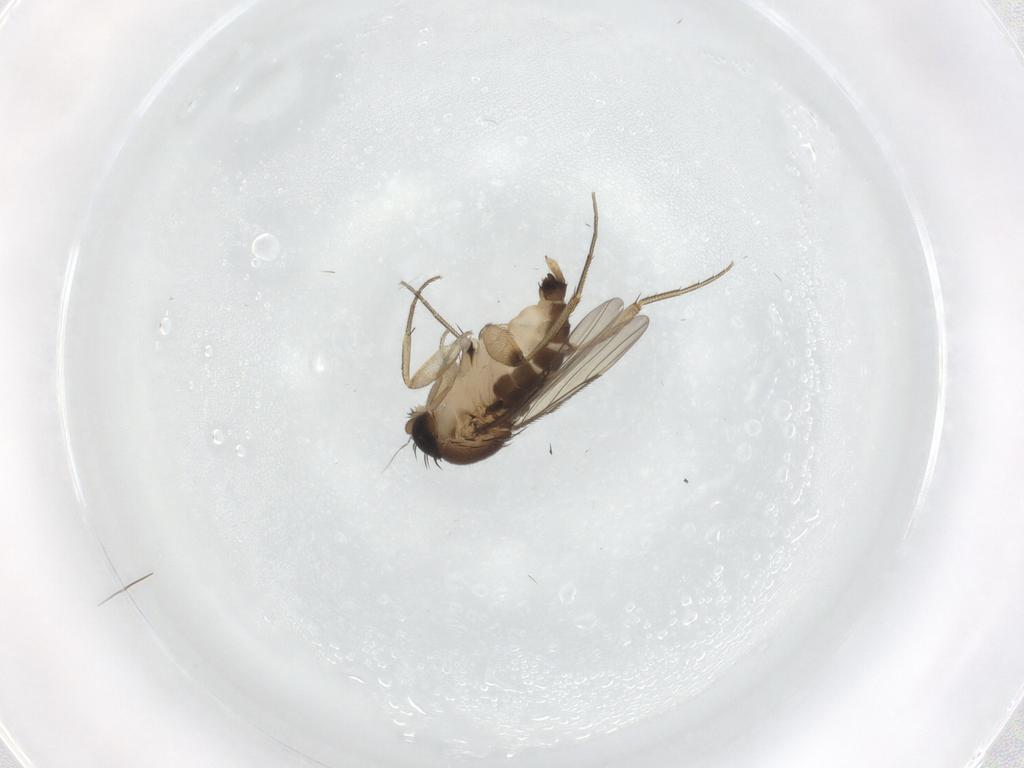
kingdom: Animalia
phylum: Arthropoda
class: Insecta
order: Diptera
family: Phoridae
